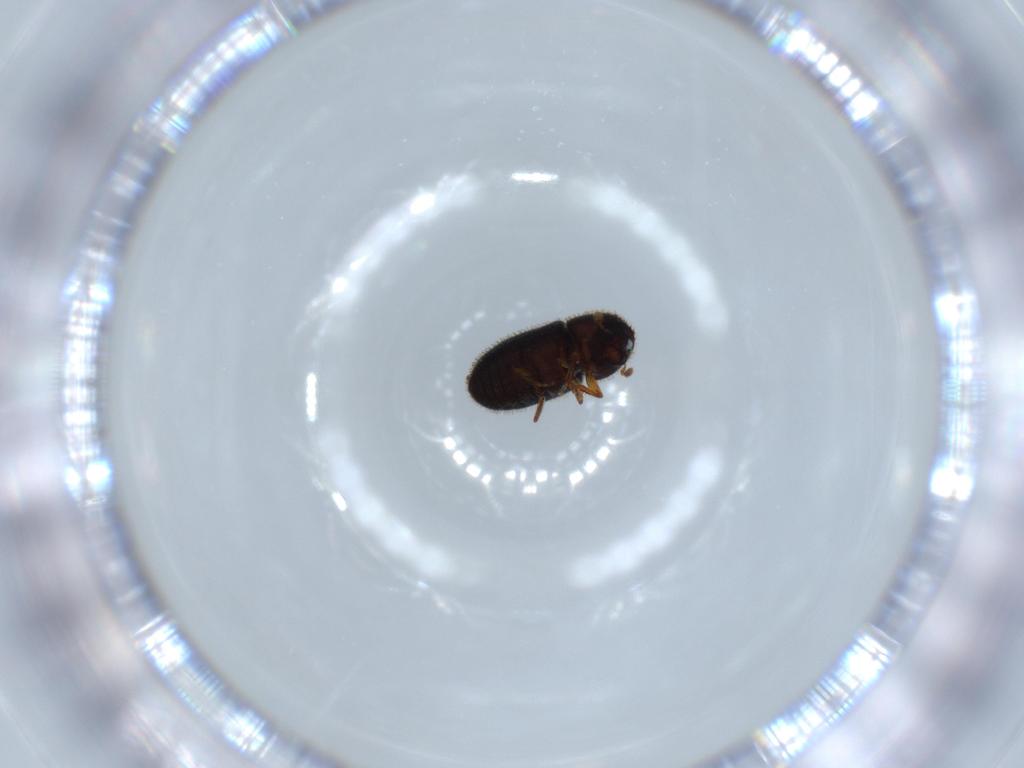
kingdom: Animalia
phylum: Arthropoda
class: Insecta
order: Coleoptera
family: Curculionidae
